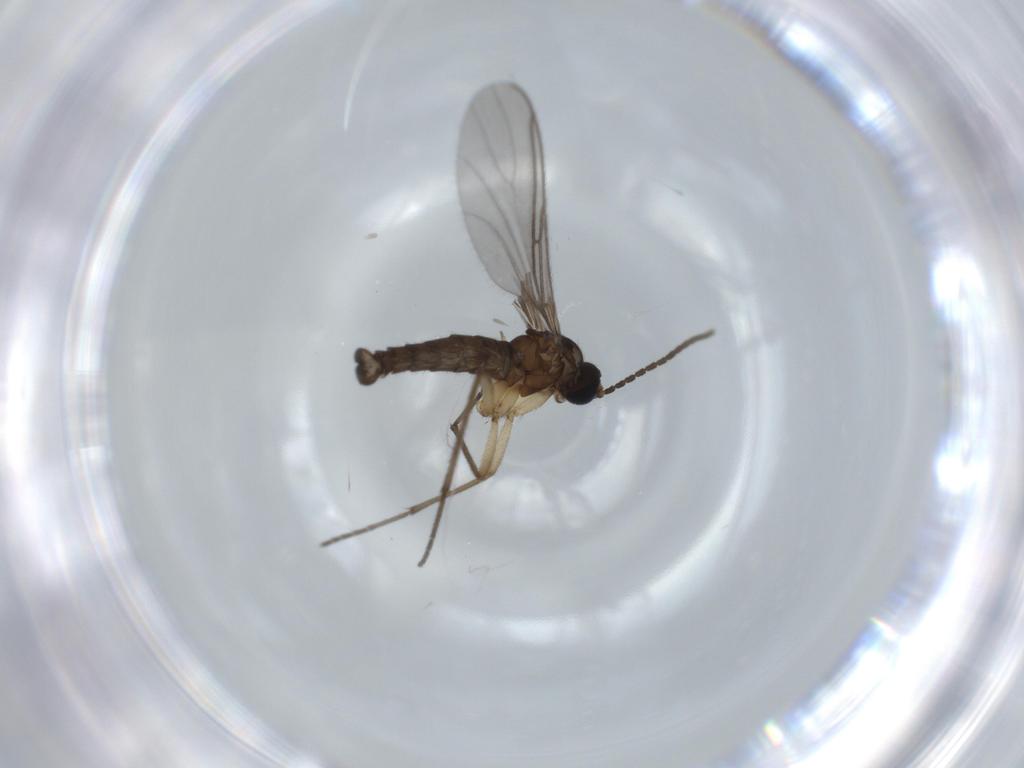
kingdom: Animalia
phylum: Arthropoda
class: Insecta
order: Diptera
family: Sciaridae
